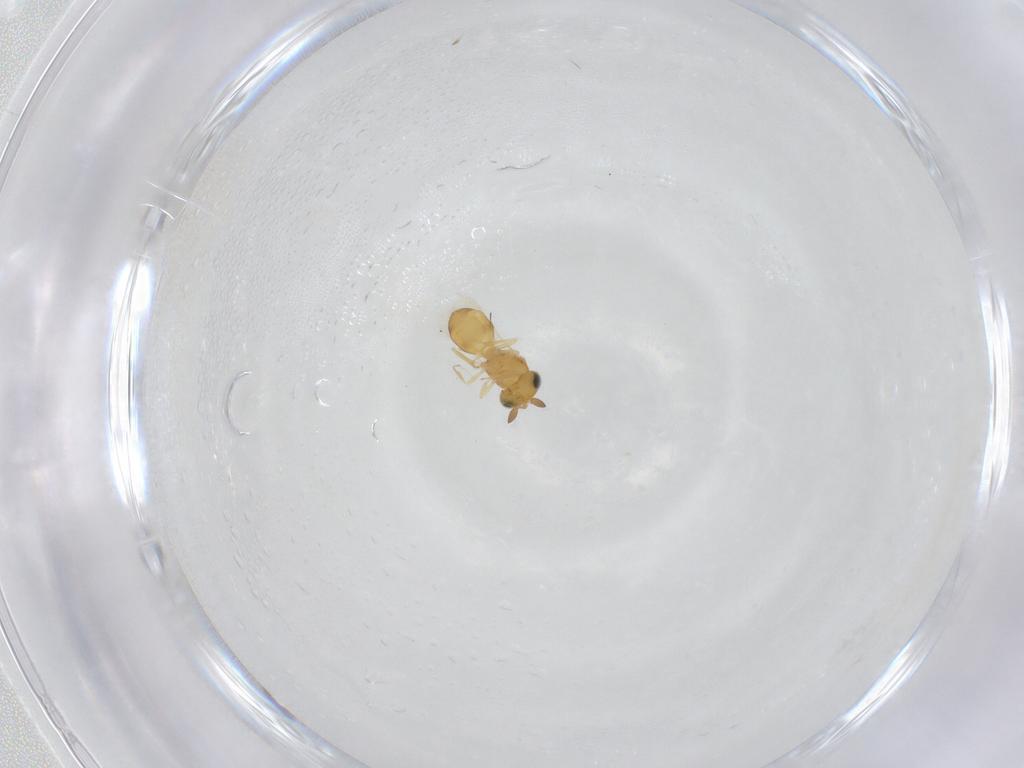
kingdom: Animalia
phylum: Arthropoda
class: Insecta
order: Hymenoptera
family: Scelionidae
